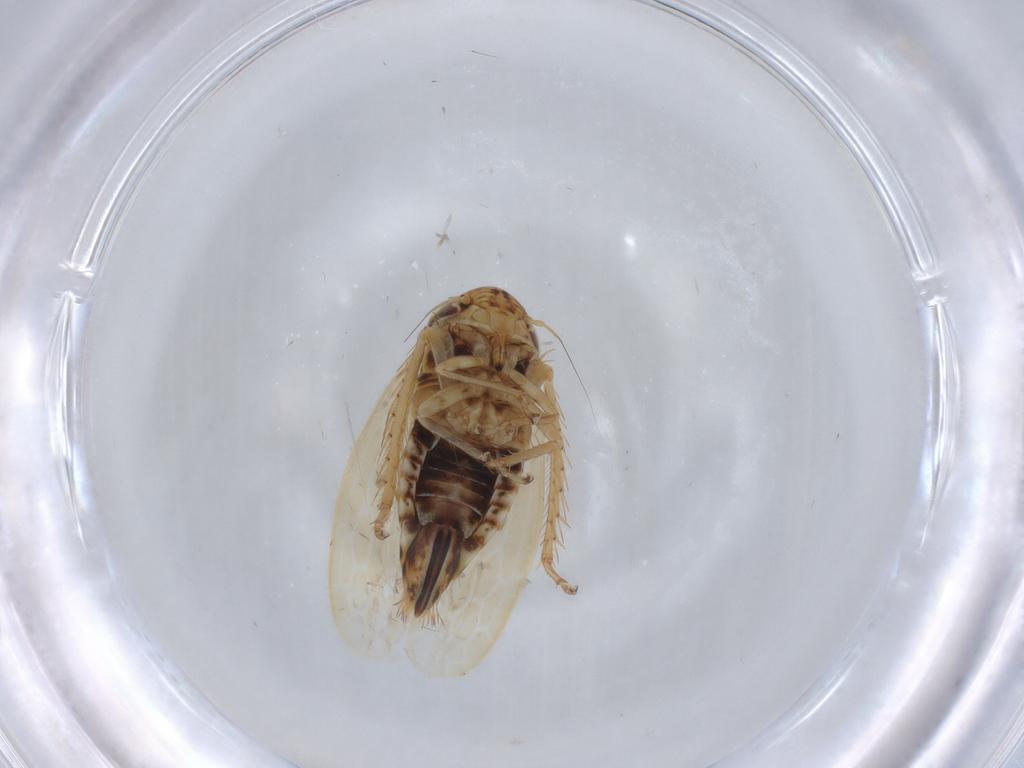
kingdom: Animalia
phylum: Arthropoda
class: Insecta
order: Hemiptera
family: Cicadellidae
